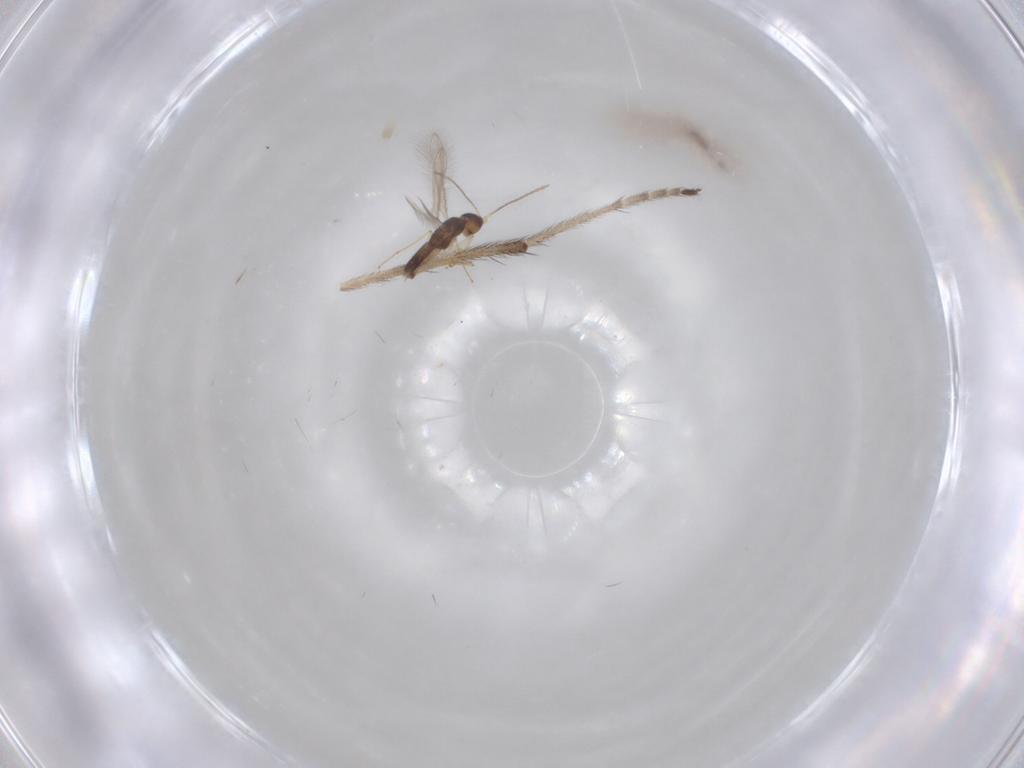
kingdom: Animalia
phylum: Arthropoda
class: Insecta
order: Hymenoptera
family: Mymaridae
